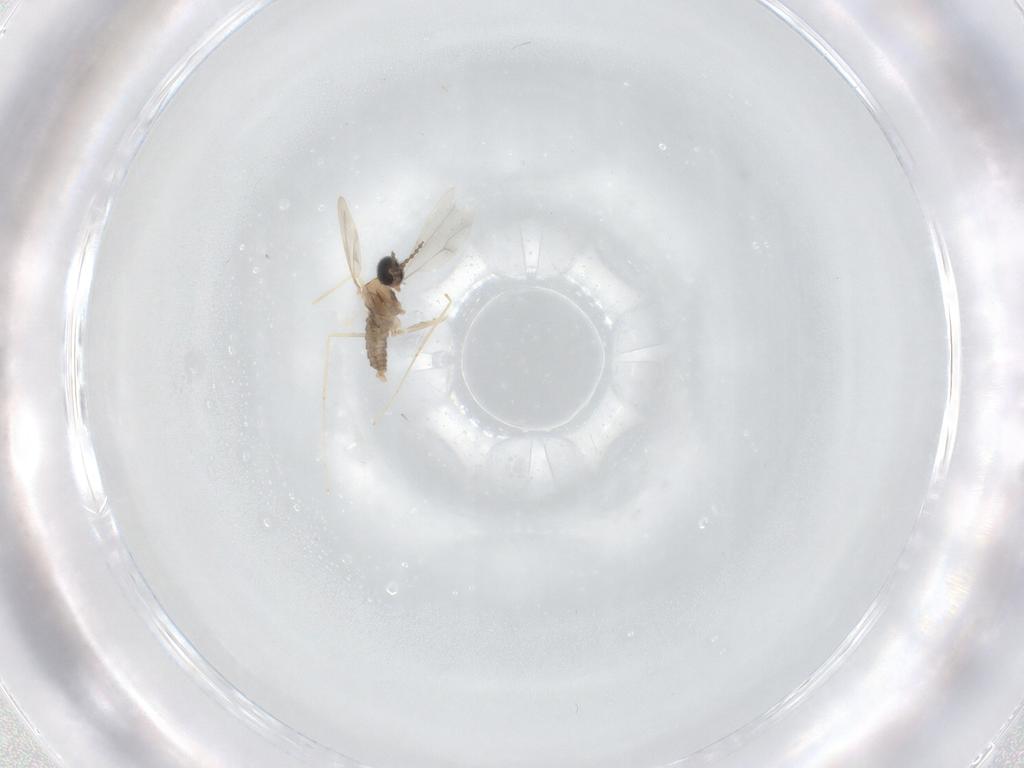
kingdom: Animalia
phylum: Arthropoda
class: Insecta
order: Diptera
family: Cecidomyiidae
